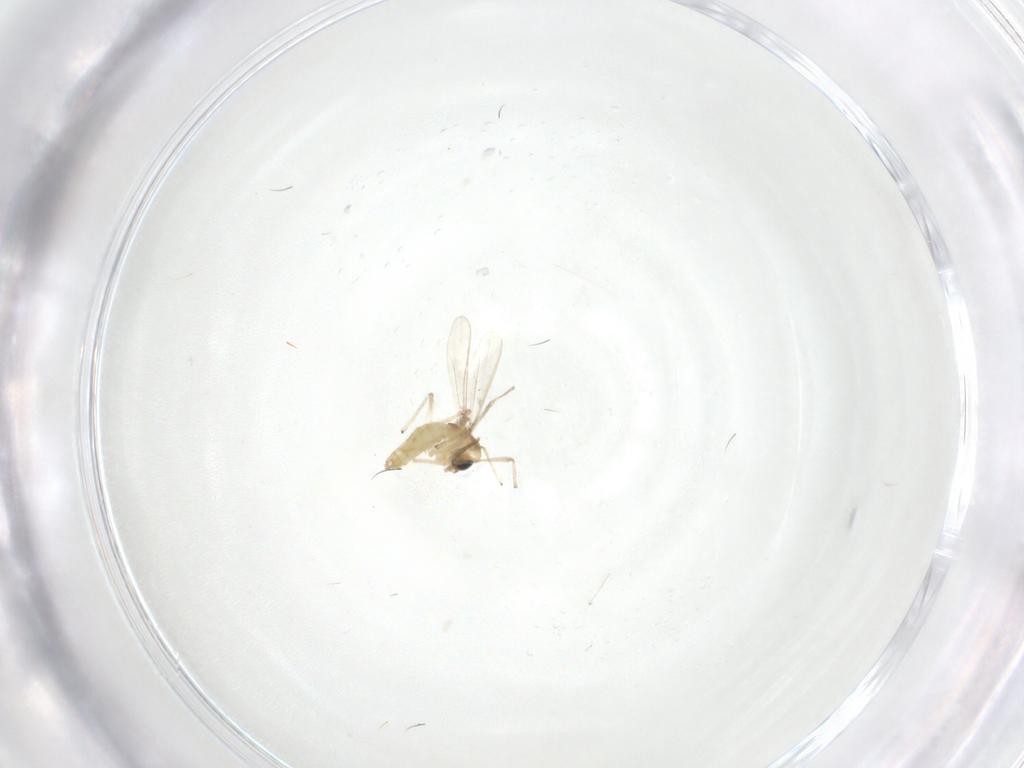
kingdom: Animalia
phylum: Arthropoda
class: Insecta
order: Diptera
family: Chironomidae
